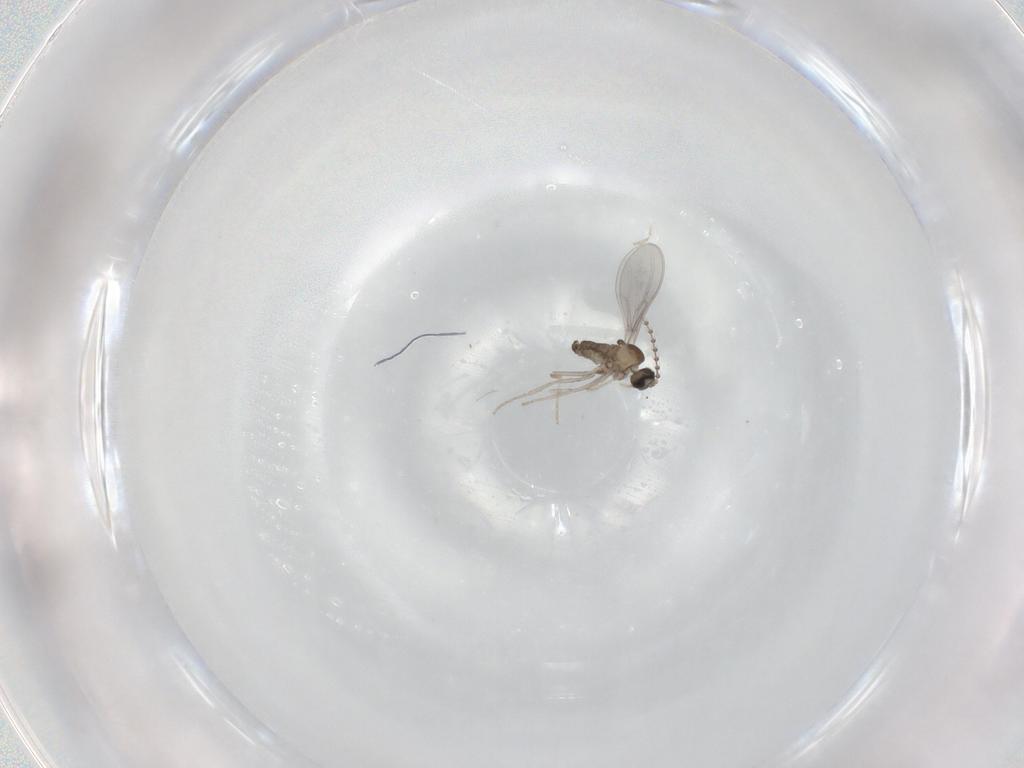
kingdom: Animalia
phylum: Arthropoda
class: Insecta
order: Diptera
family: Cecidomyiidae
